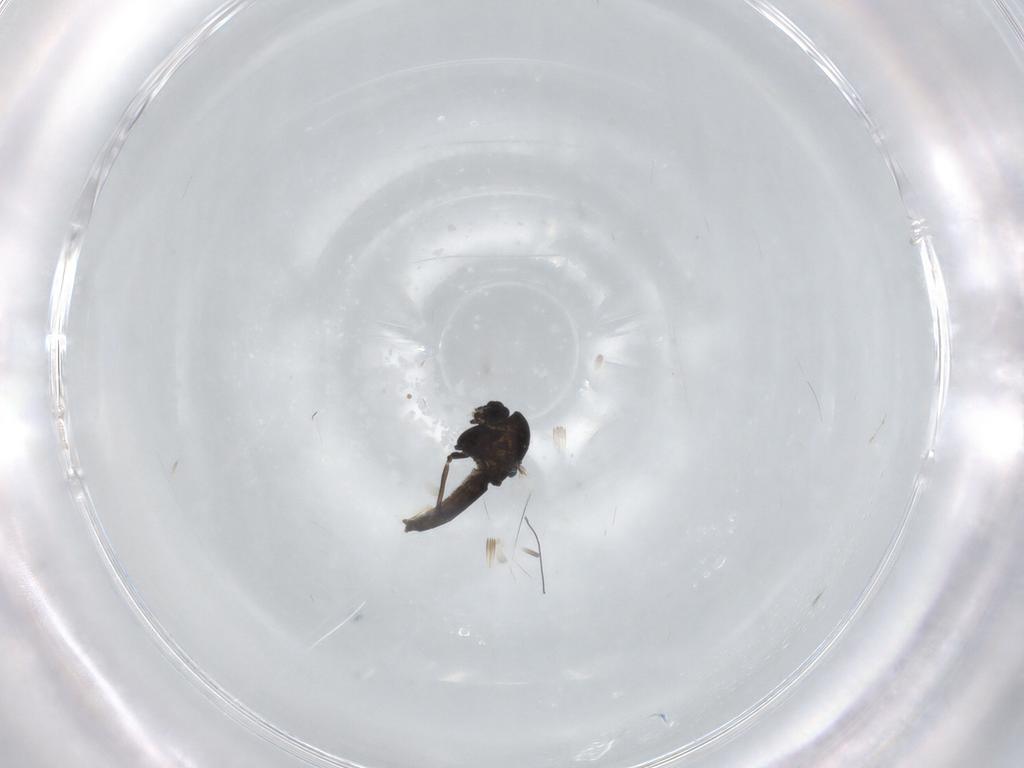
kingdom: Animalia
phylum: Arthropoda
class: Insecta
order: Diptera
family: Chironomidae
